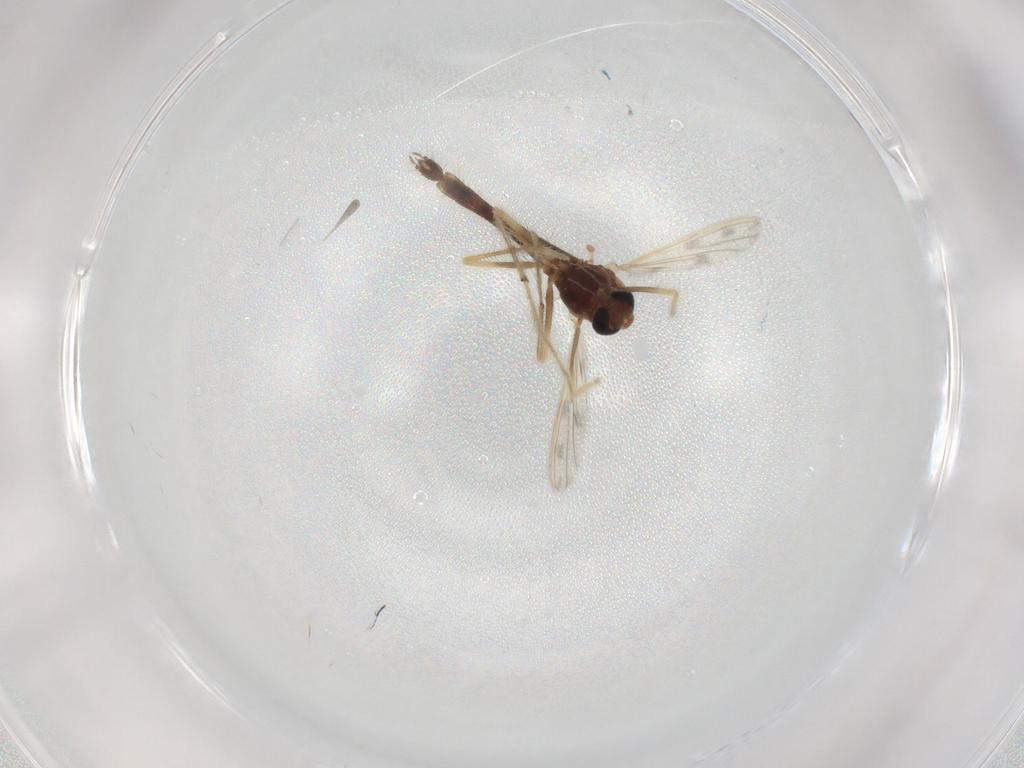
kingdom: Animalia
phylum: Arthropoda
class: Insecta
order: Diptera
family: Chironomidae
